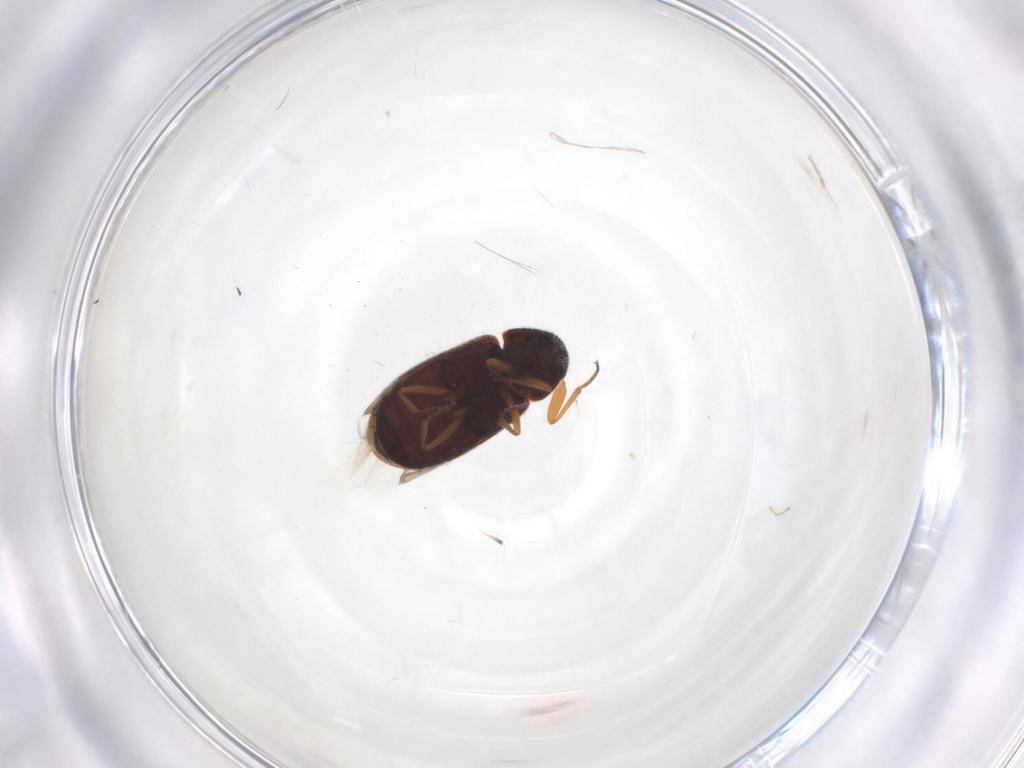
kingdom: Animalia
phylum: Arthropoda
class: Insecta
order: Coleoptera
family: Rhadalidae
